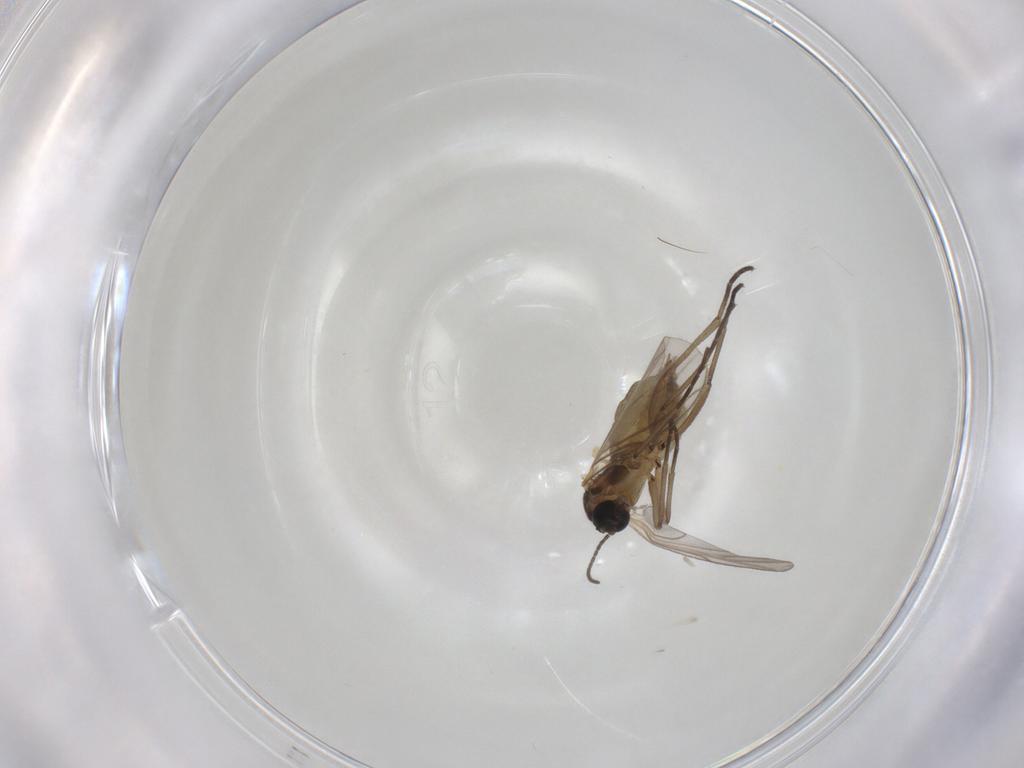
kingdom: Animalia
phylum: Arthropoda
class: Insecta
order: Diptera
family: Sciaridae
